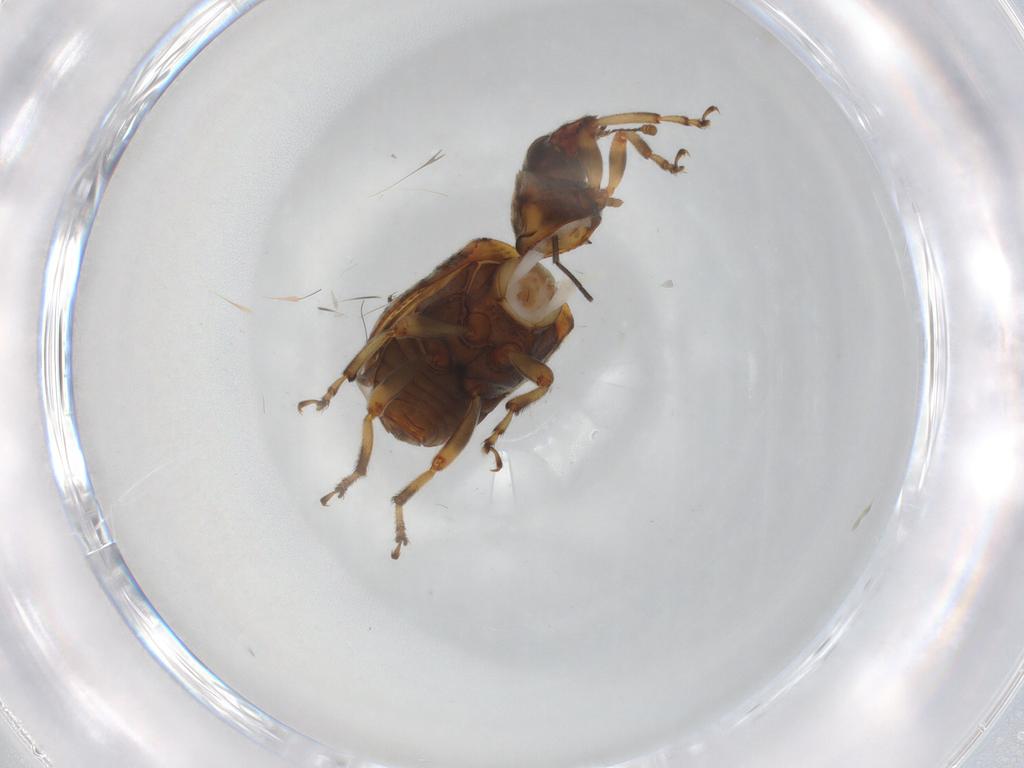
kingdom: Animalia
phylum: Arthropoda
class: Insecta
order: Coleoptera
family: Anthribidae
